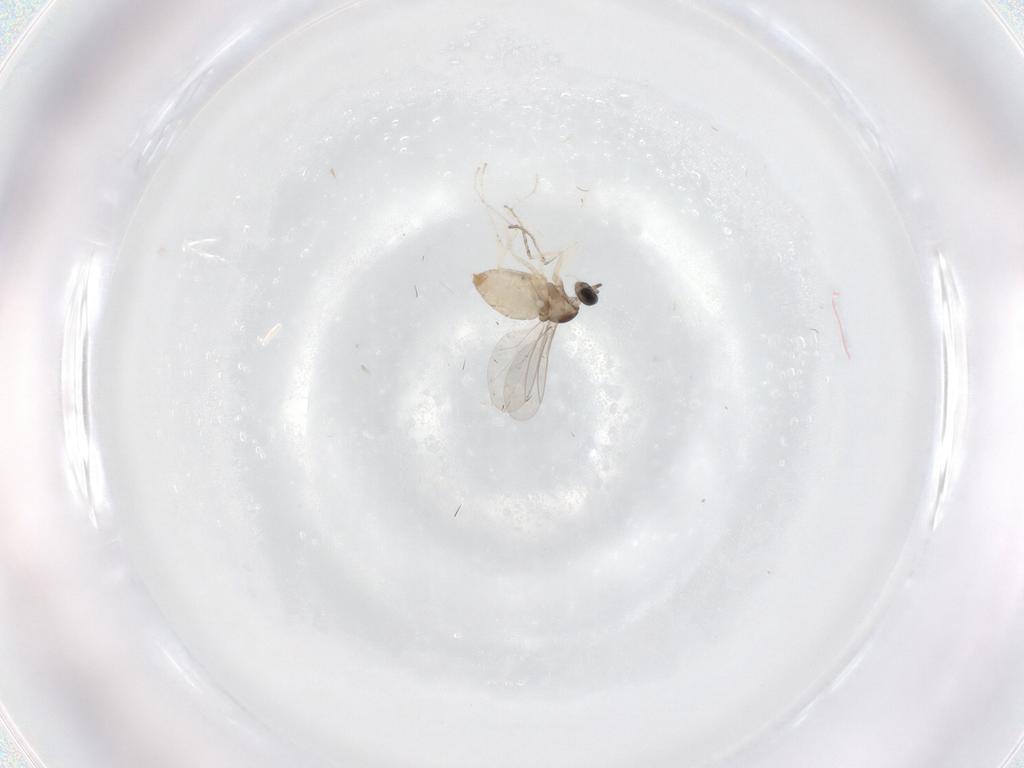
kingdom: Animalia
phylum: Arthropoda
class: Insecta
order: Diptera
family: Cecidomyiidae
